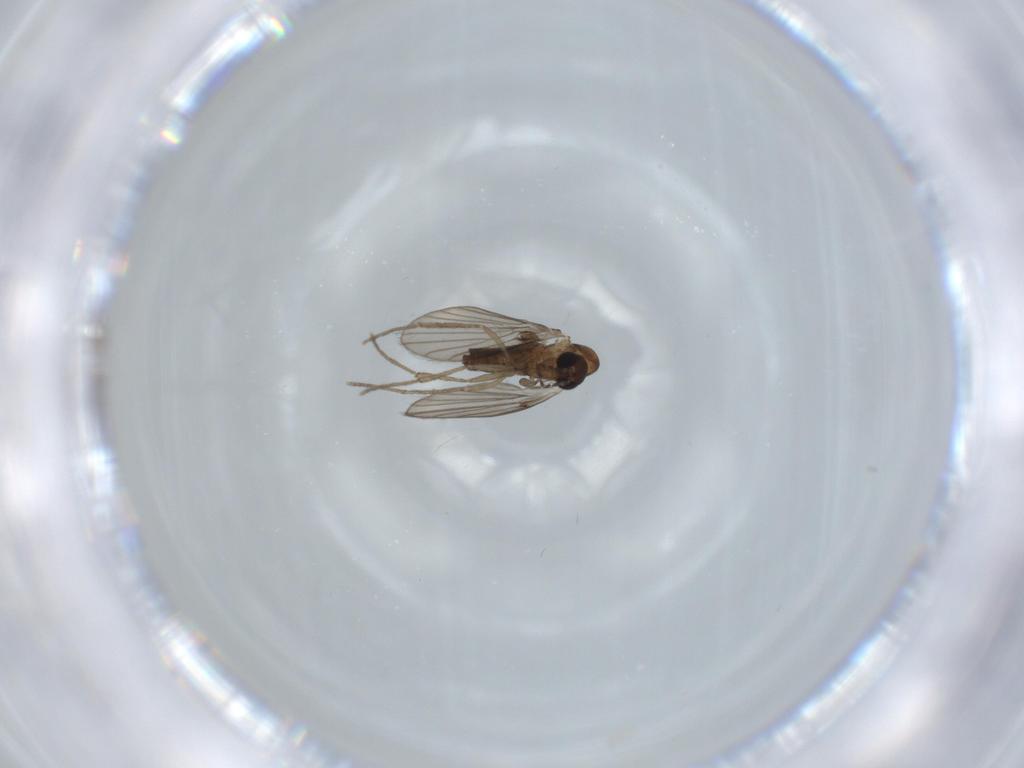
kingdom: Animalia
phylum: Arthropoda
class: Insecta
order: Diptera
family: Psychodidae
